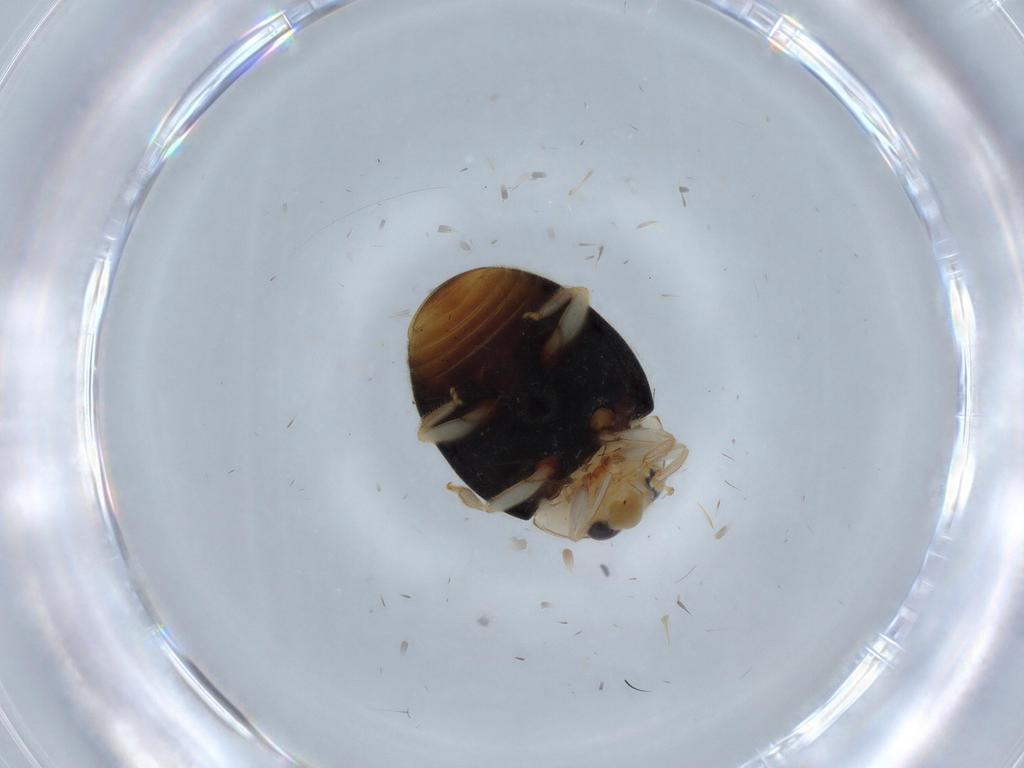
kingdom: Animalia
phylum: Arthropoda
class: Insecta
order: Coleoptera
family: Coccinellidae
